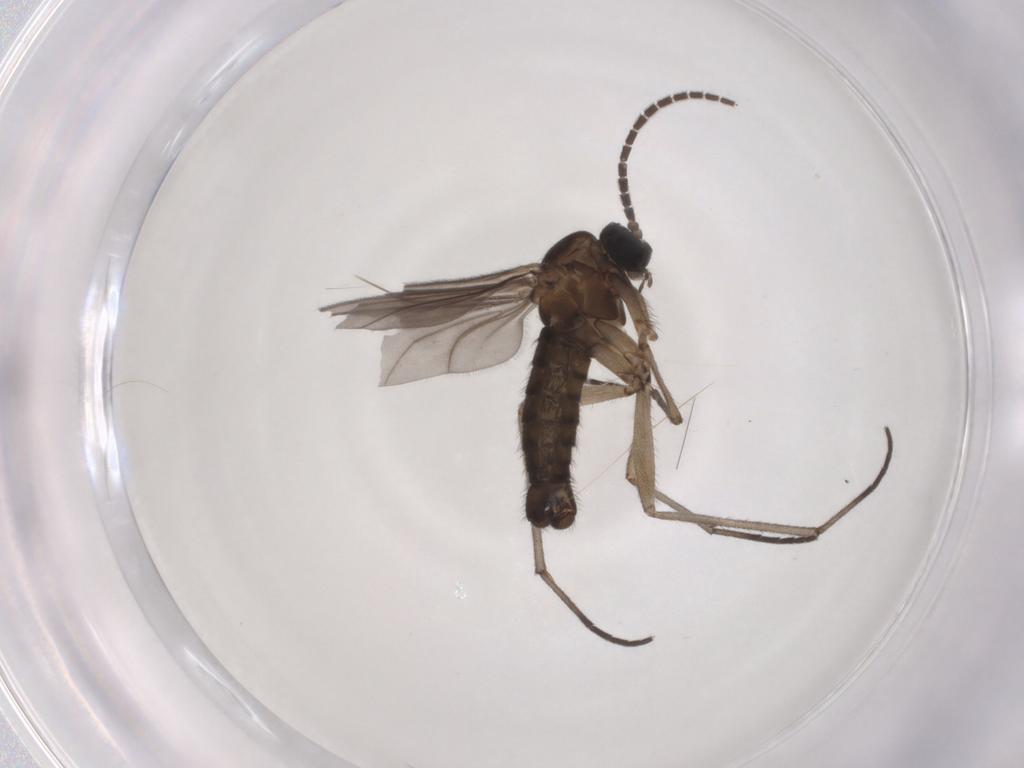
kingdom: Animalia
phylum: Arthropoda
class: Insecta
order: Diptera
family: Sciaridae
